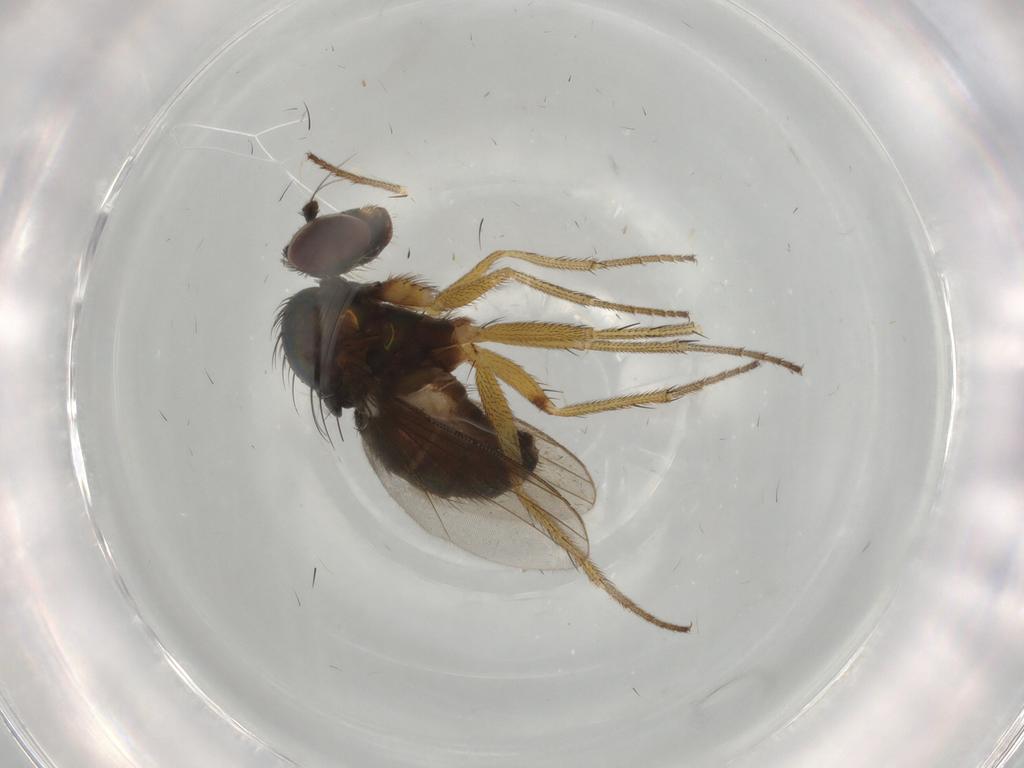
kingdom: Animalia
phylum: Arthropoda
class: Insecta
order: Diptera
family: Dolichopodidae
